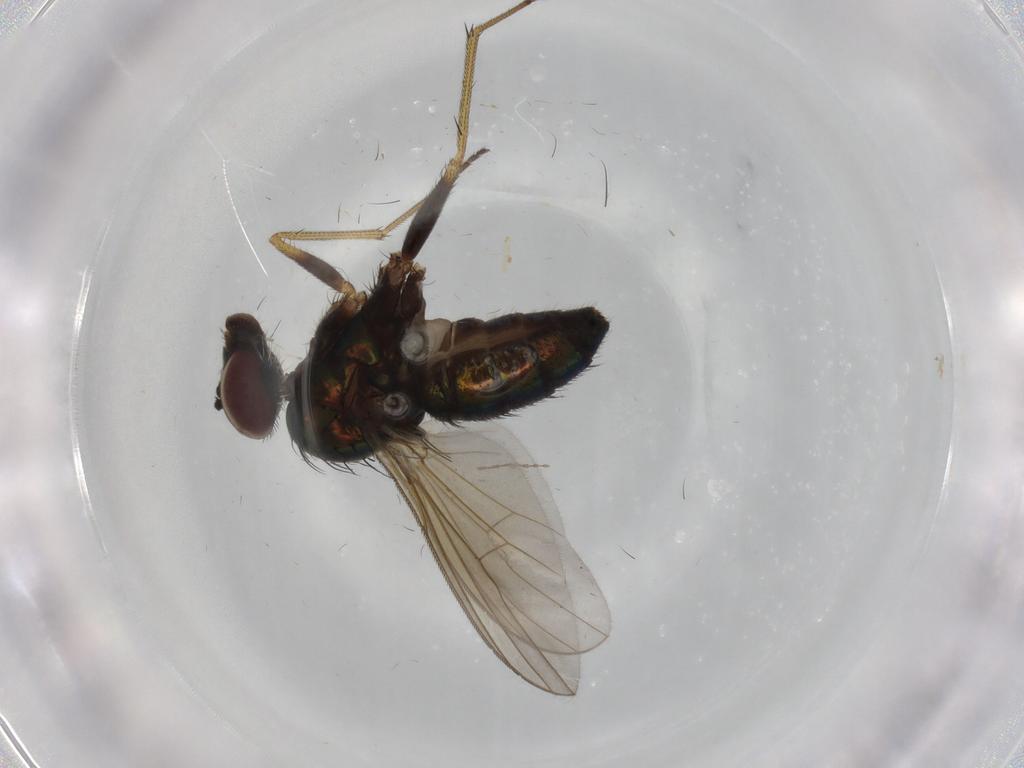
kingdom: Animalia
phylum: Arthropoda
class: Insecta
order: Diptera
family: Dolichopodidae
